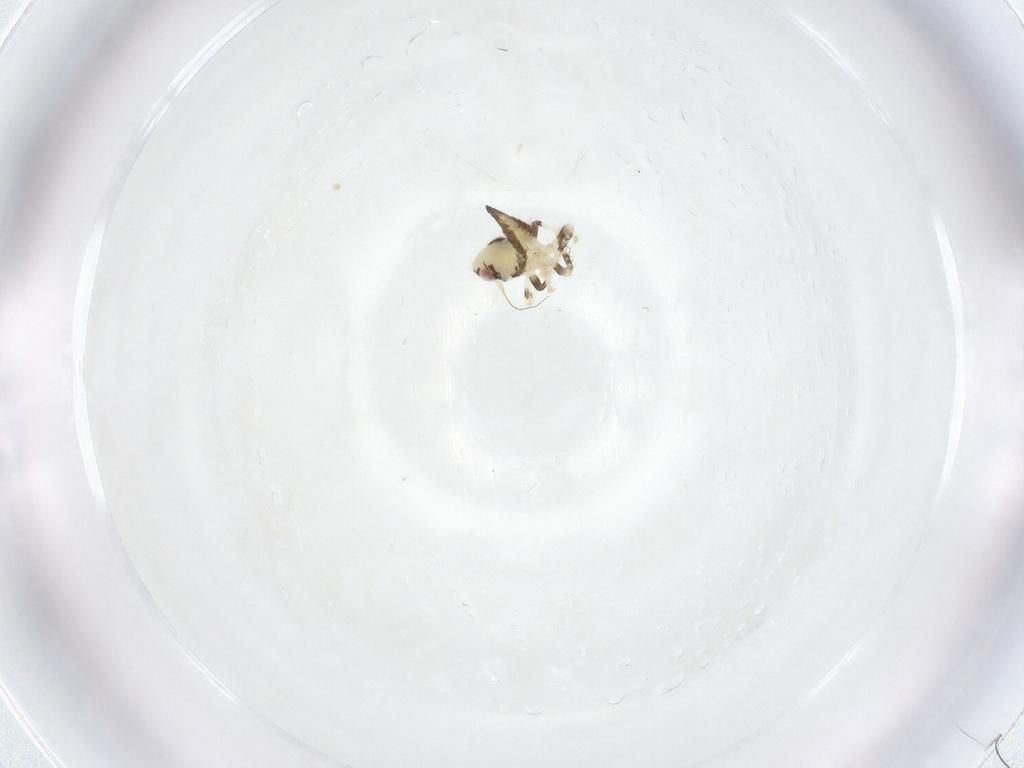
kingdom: Animalia
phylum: Arthropoda
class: Insecta
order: Hemiptera
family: Cicadellidae
